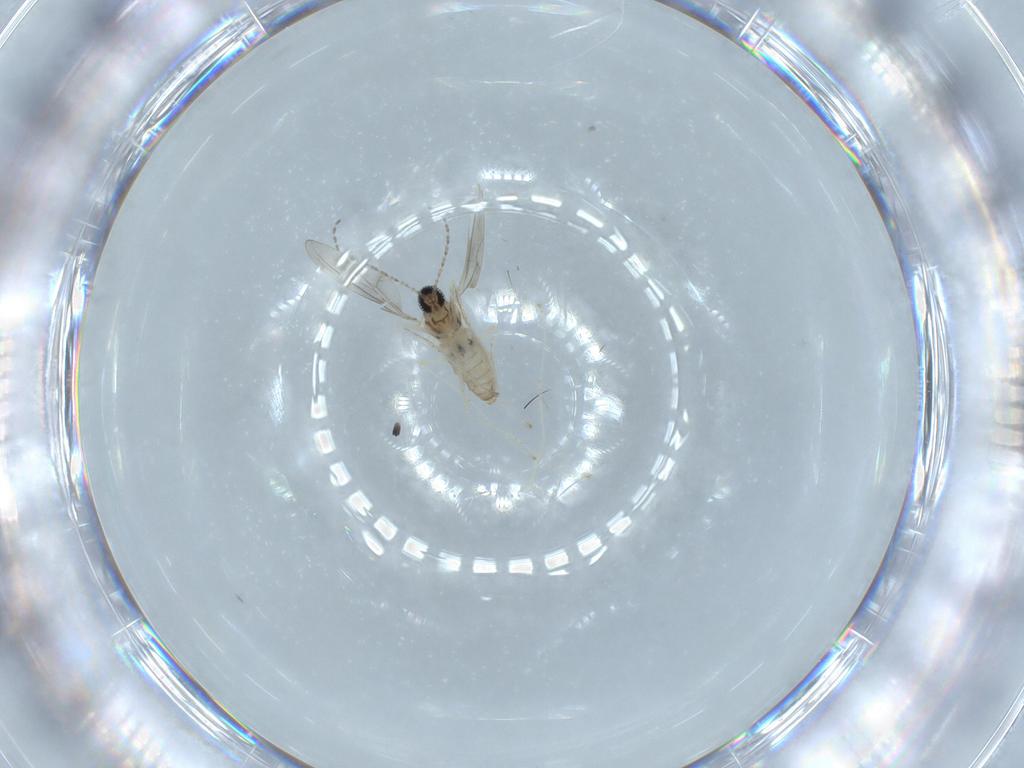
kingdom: Animalia
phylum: Arthropoda
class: Insecta
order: Diptera
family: Cecidomyiidae
